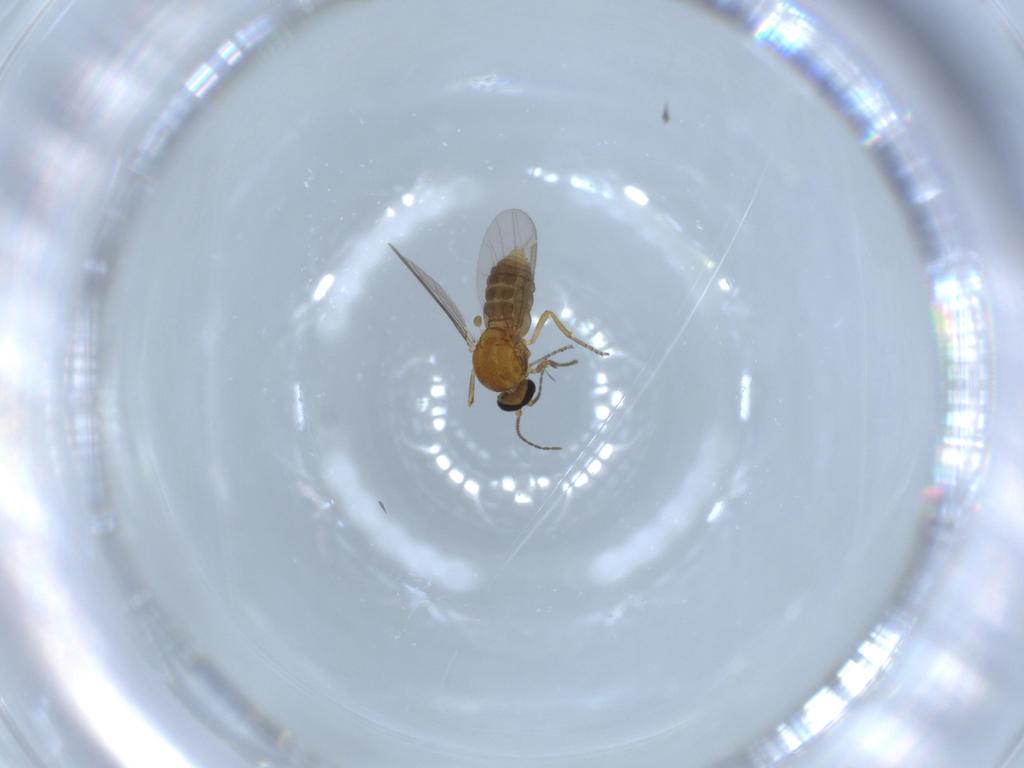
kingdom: Animalia
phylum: Arthropoda
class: Insecta
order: Diptera
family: Ceratopogonidae
